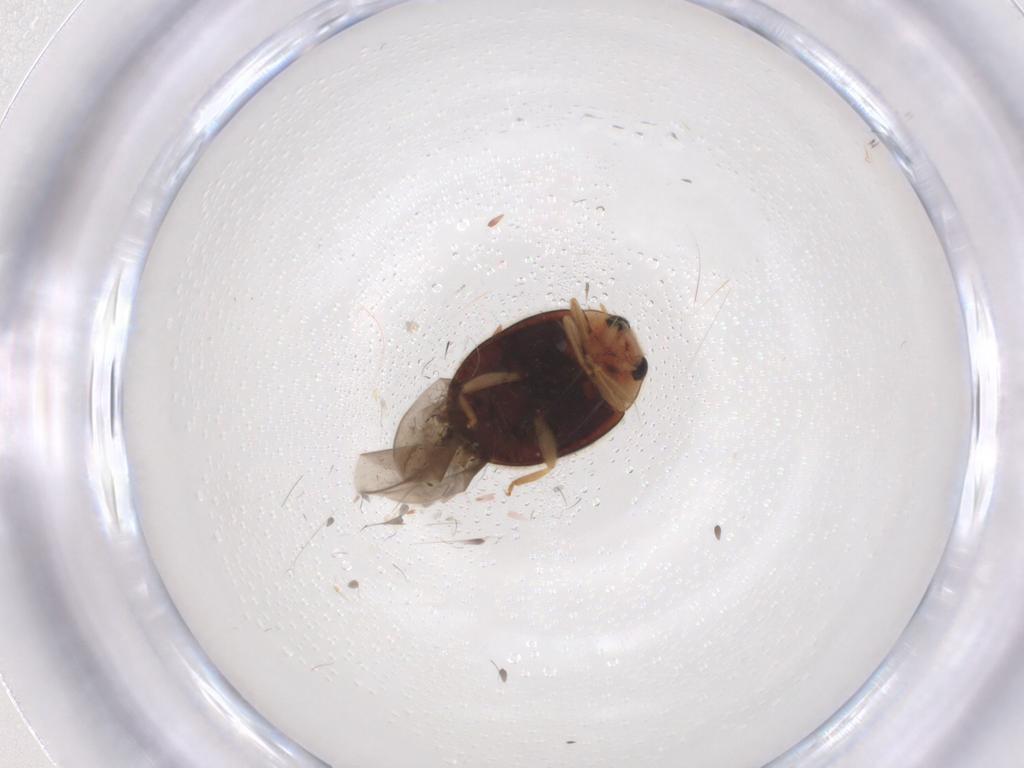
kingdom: Animalia
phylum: Arthropoda
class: Insecta
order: Coleoptera
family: Coccinellidae
